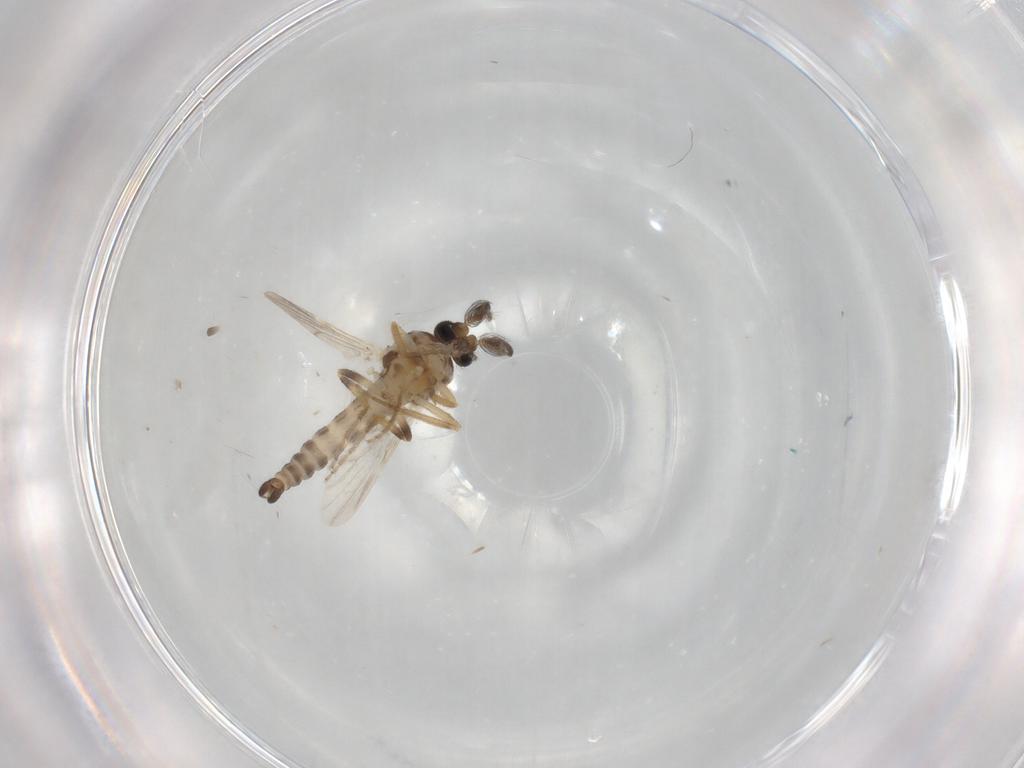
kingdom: Animalia
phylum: Arthropoda
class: Insecta
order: Diptera
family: Ceratopogonidae
